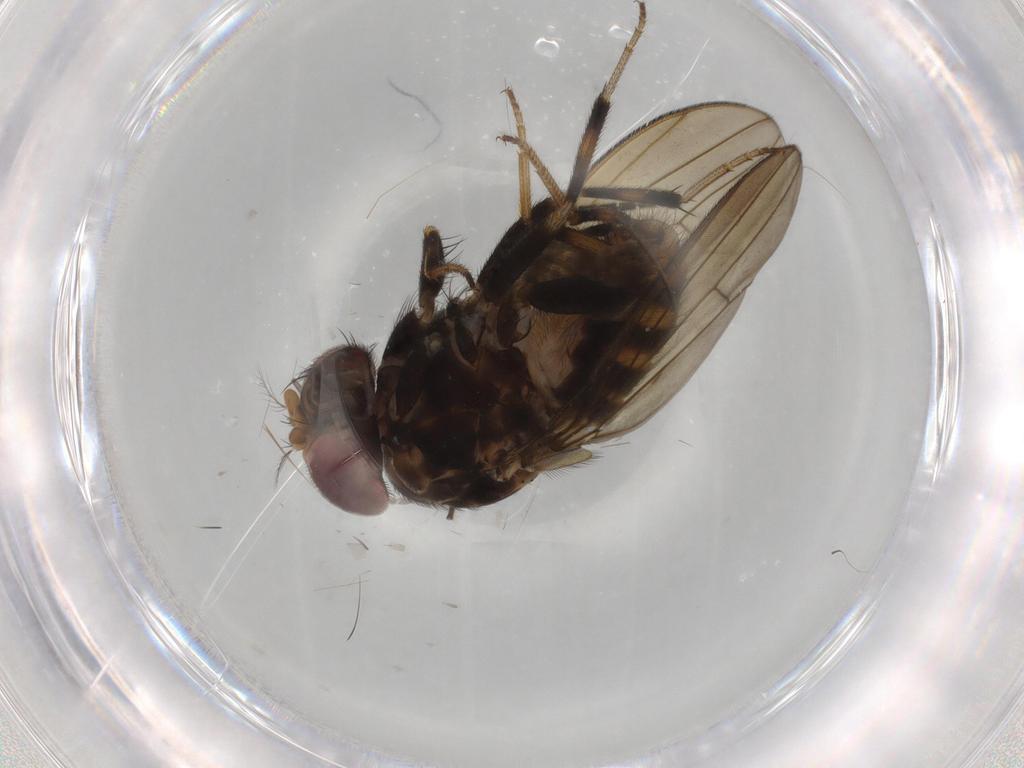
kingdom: Animalia
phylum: Arthropoda
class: Insecta
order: Diptera
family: Drosophilidae
